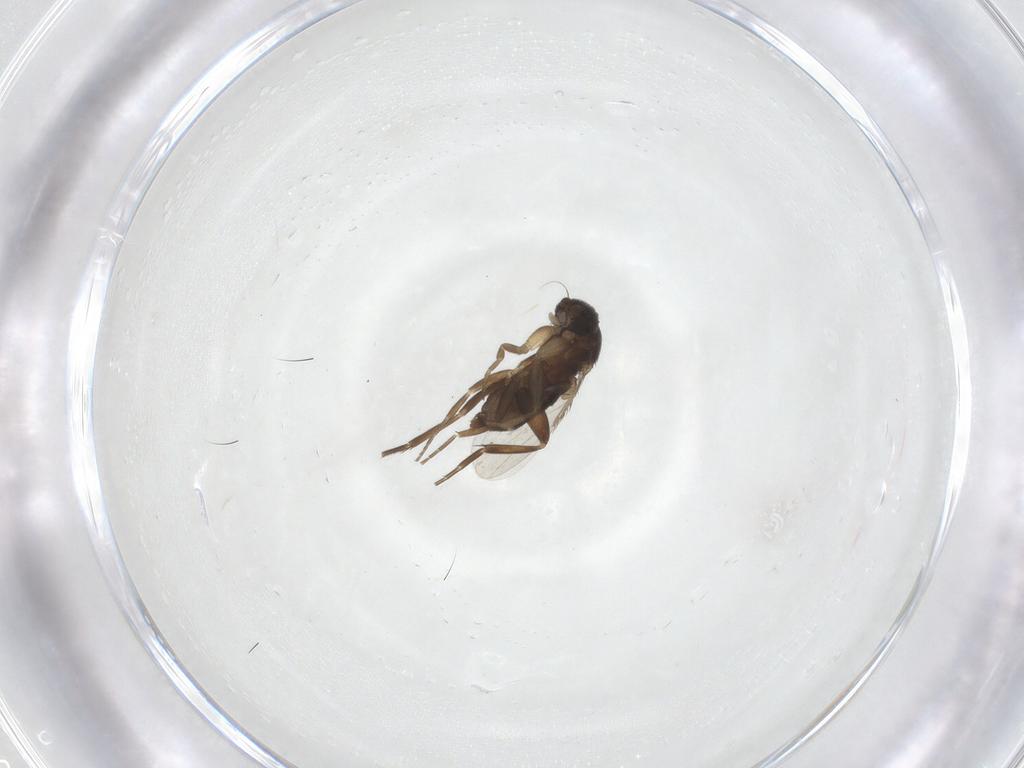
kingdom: Animalia
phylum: Arthropoda
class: Insecta
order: Diptera
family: Phoridae
